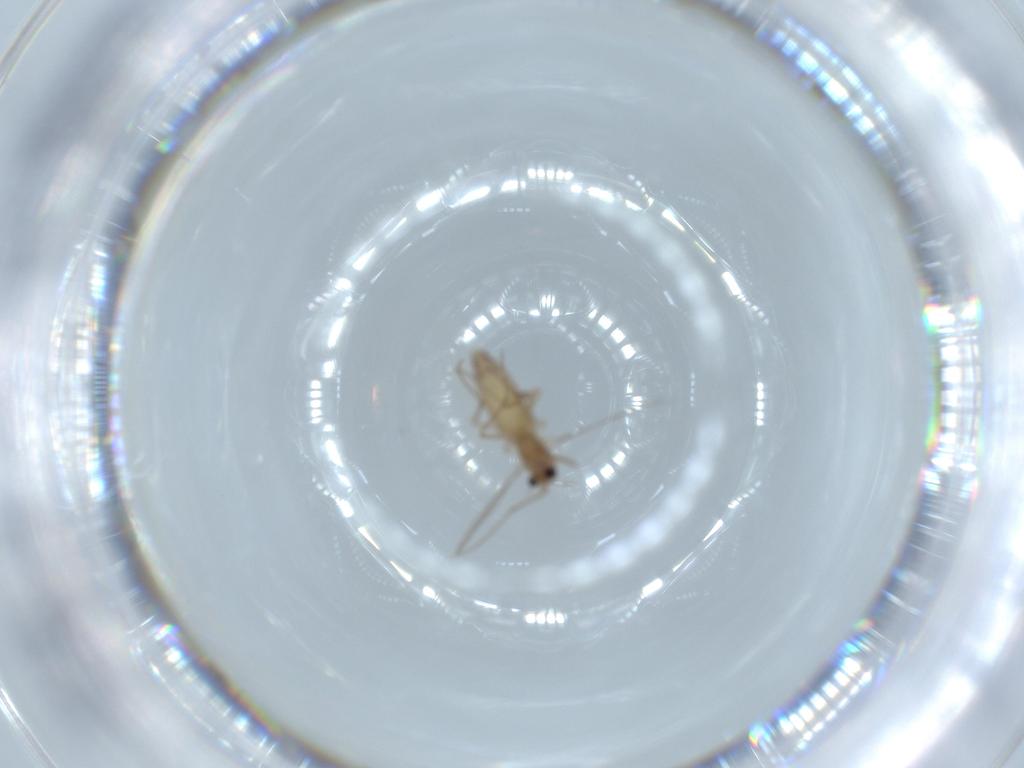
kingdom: Animalia
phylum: Arthropoda
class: Insecta
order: Diptera
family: Chironomidae
